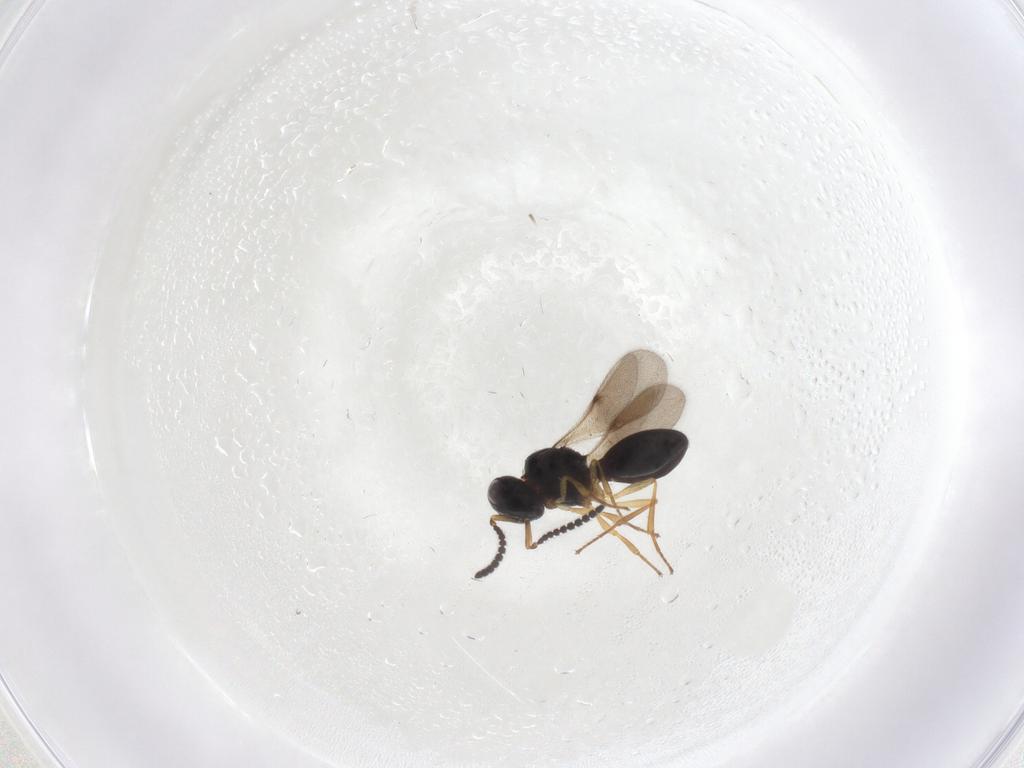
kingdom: Animalia
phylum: Arthropoda
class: Insecta
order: Hymenoptera
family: Scelionidae
